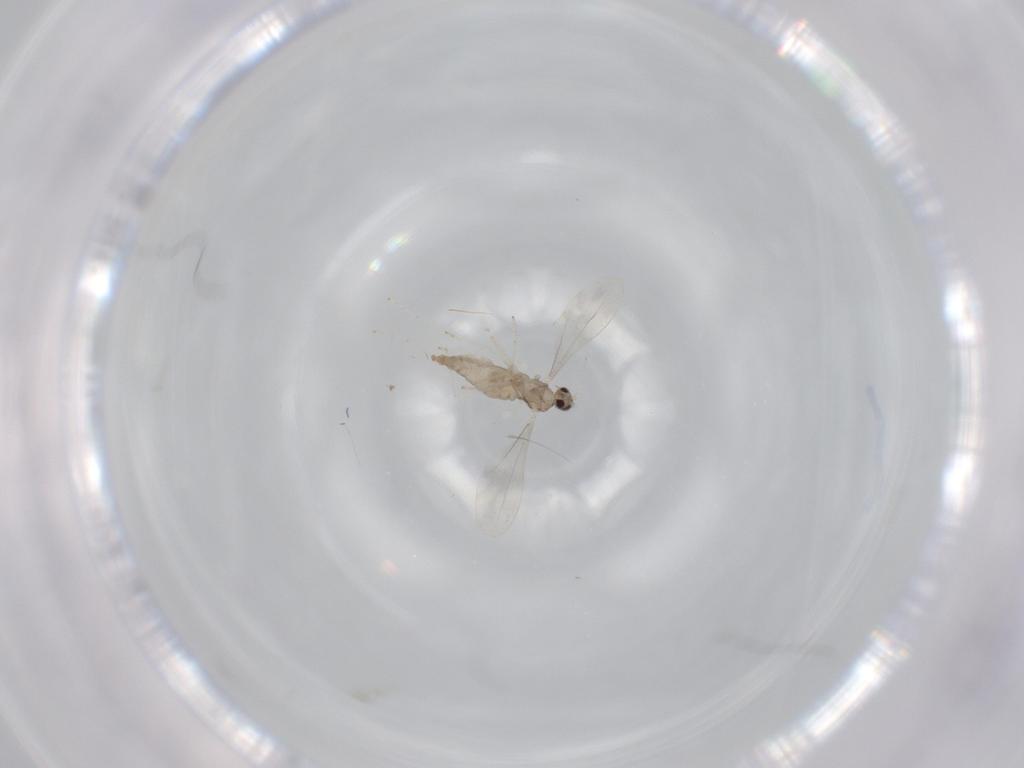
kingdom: Animalia
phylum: Arthropoda
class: Insecta
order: Diptera
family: Cecidomyiidae
